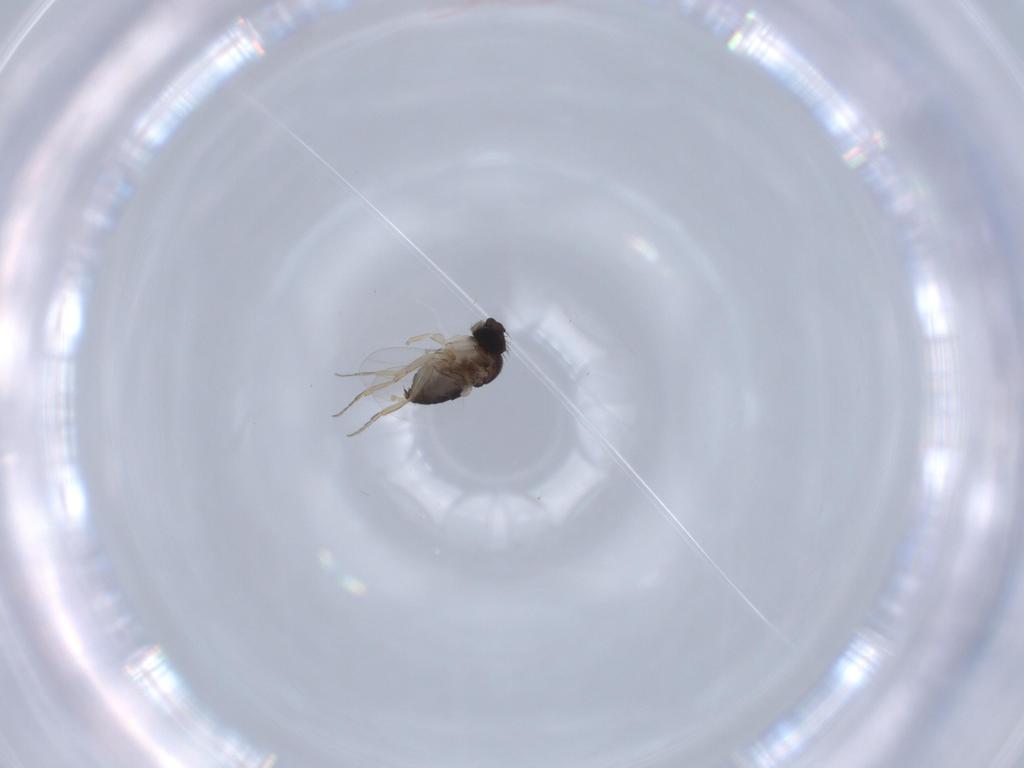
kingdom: Animalia
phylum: Arthropoda
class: Insecta
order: Diptera
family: Phoridae
